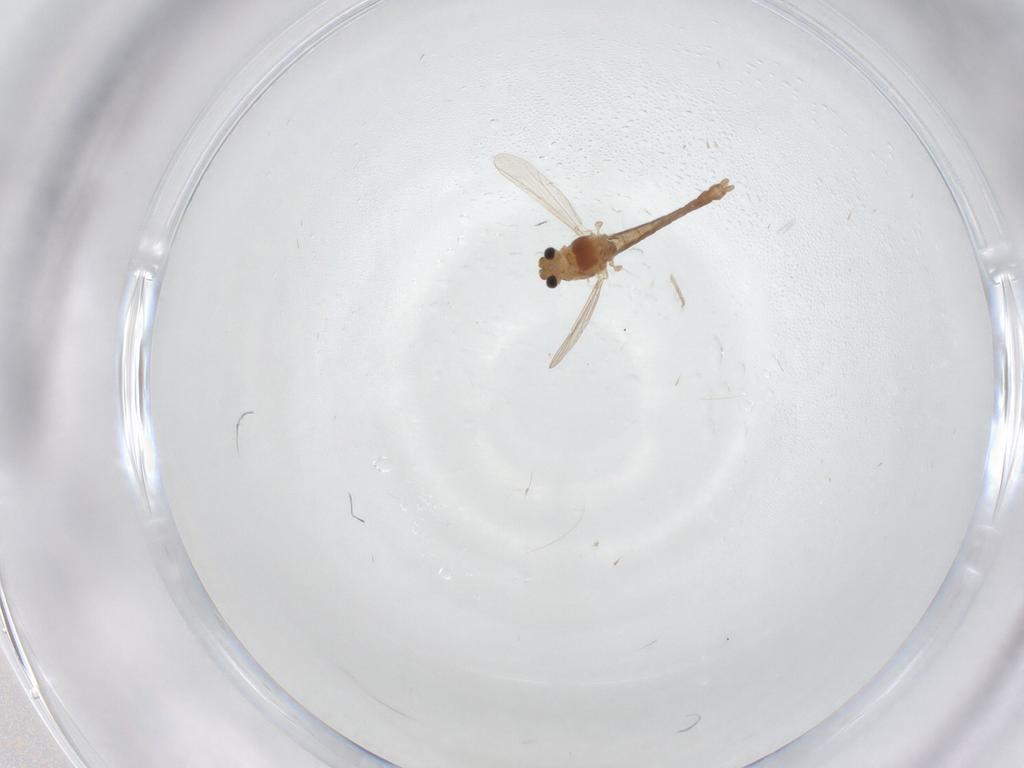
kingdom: Animalia
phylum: Arthropoda
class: Insecta
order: Diptera
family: Chironomidae
